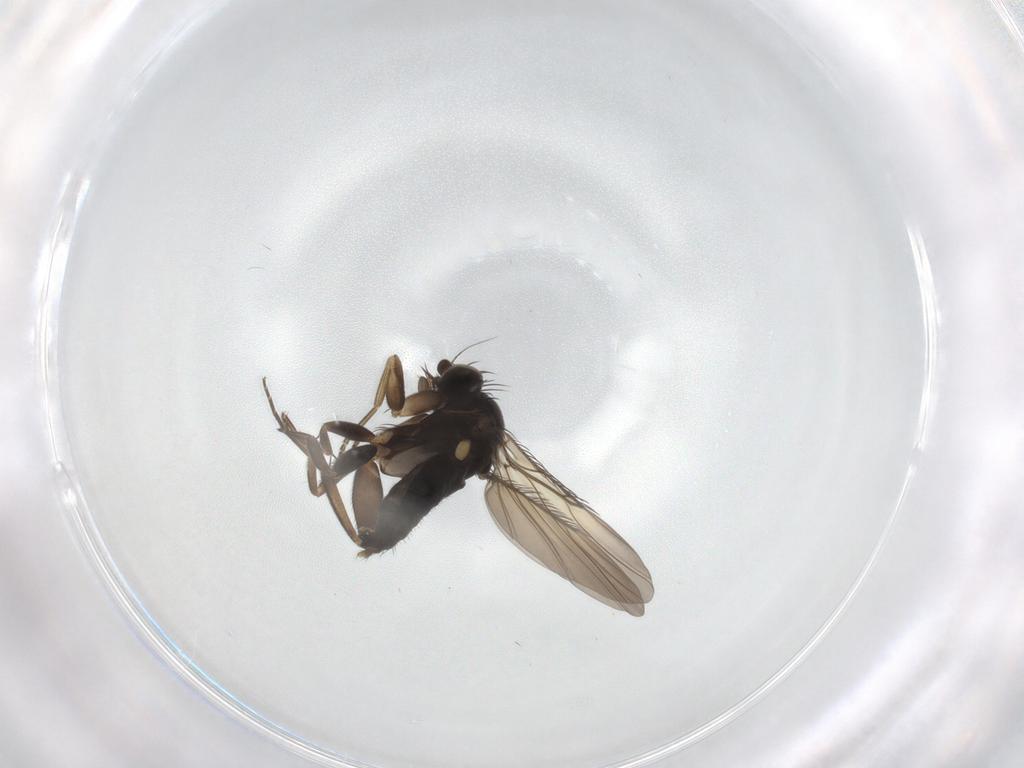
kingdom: Animalia
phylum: Arthropoda
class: Insecta
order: Diptera
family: Phoridae
